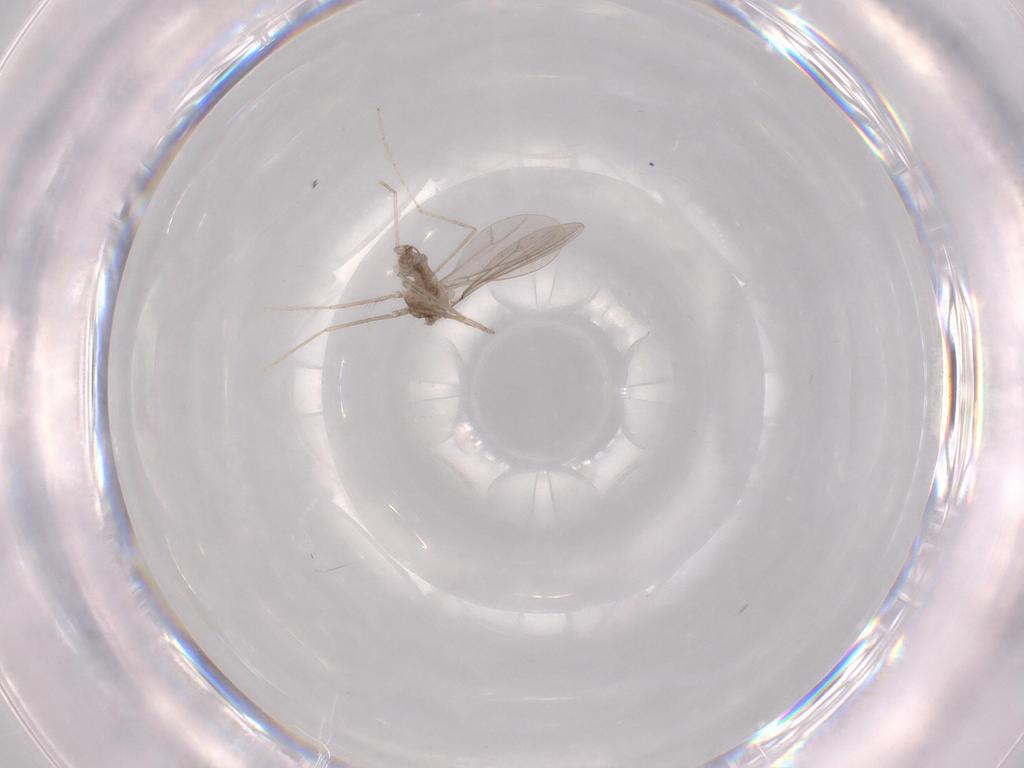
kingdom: Animalia
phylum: Arthropoda
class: Insecta
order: Diptera
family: Cecidomyiidae
